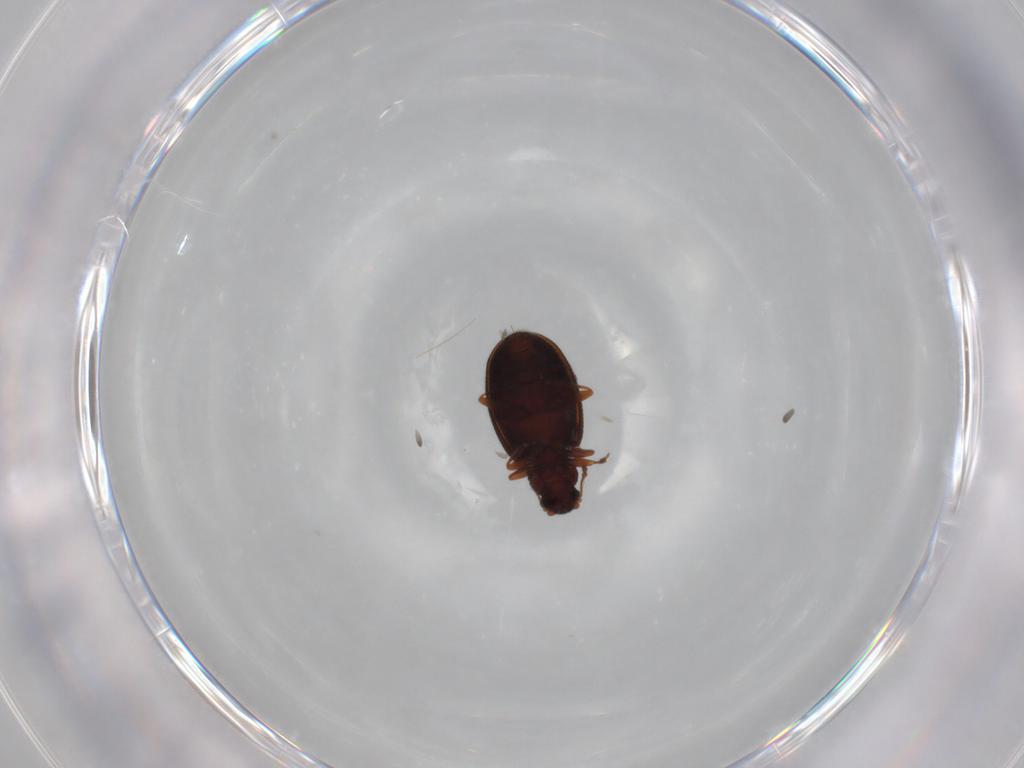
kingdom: Animalia
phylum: Arthropoda
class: Insecta
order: Coleoptera
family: Latridiidae
